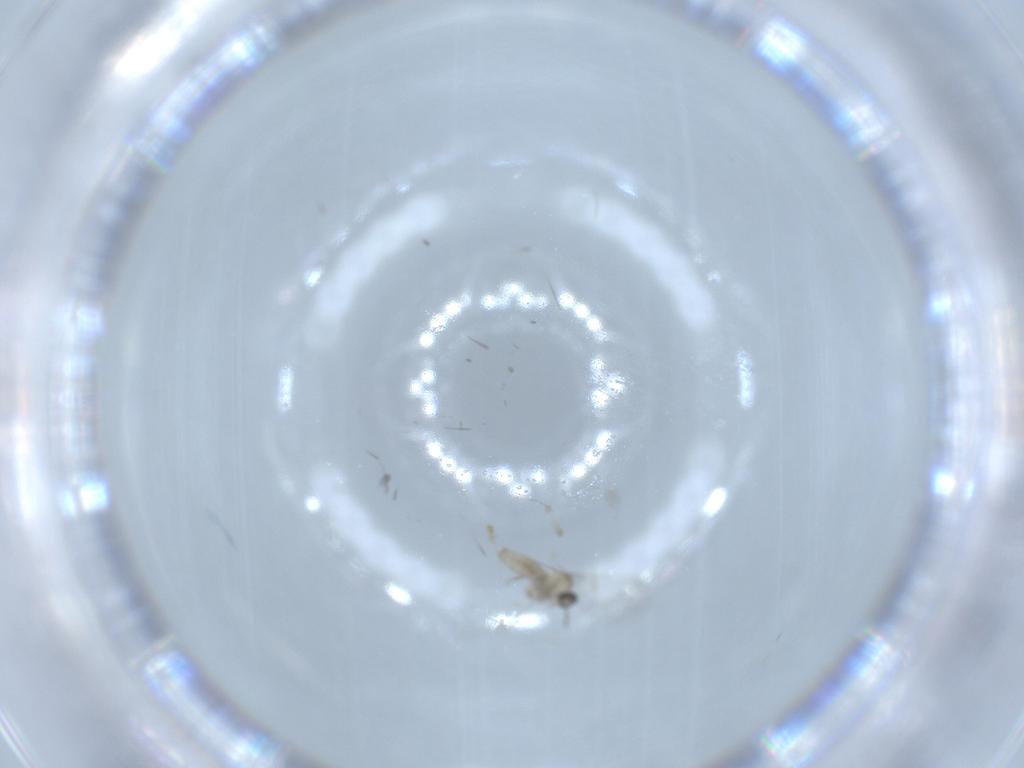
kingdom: Animalia
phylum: Arthropoda
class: Insecta
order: Diptera
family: Cecidomyiidae
